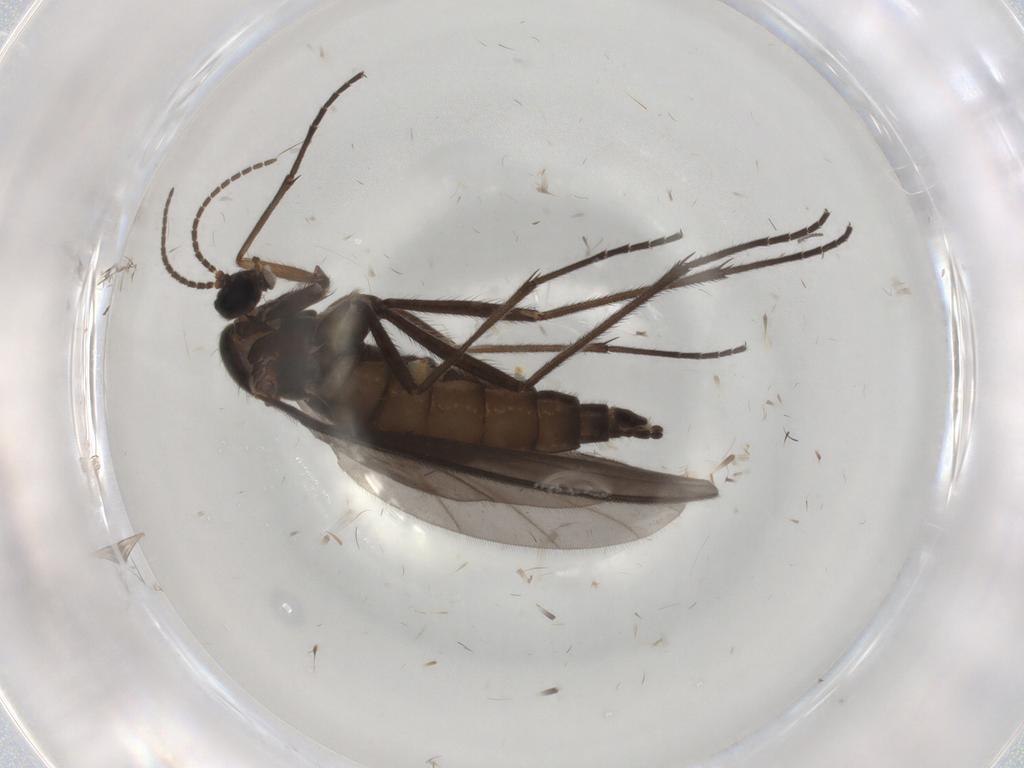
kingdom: Animalia
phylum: Arthropoda
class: Insecta
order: Diptera
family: Sciaridae
